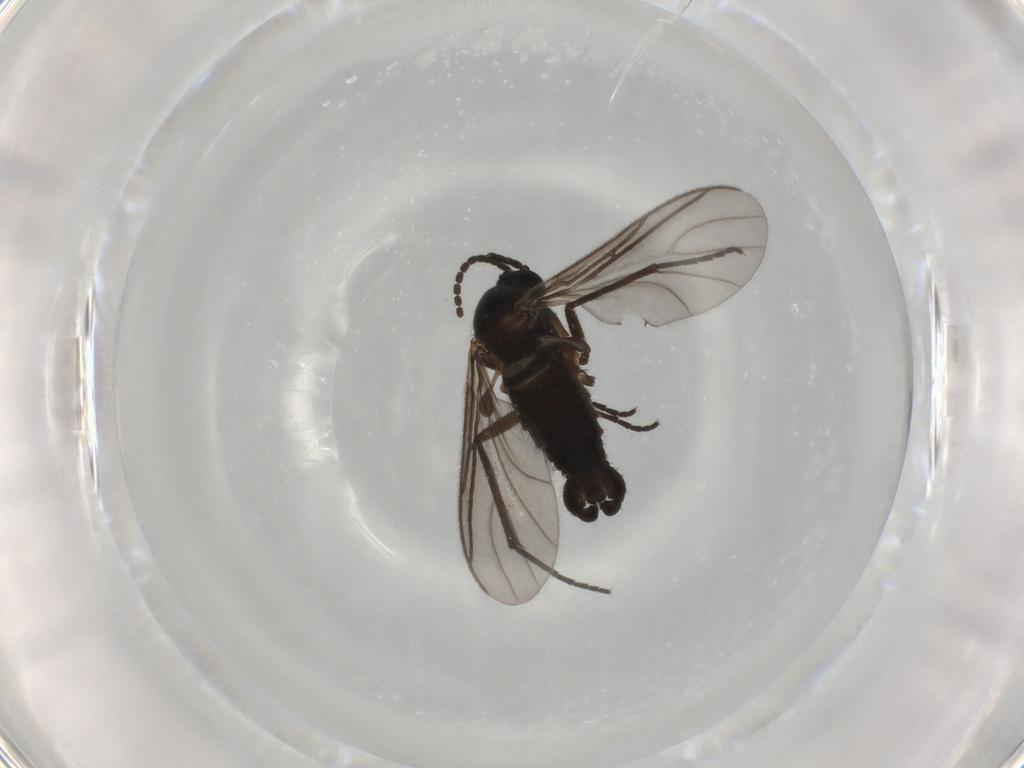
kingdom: Animalia
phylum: Arthropoda
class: Insecta
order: Diptera
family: Sciaridae
